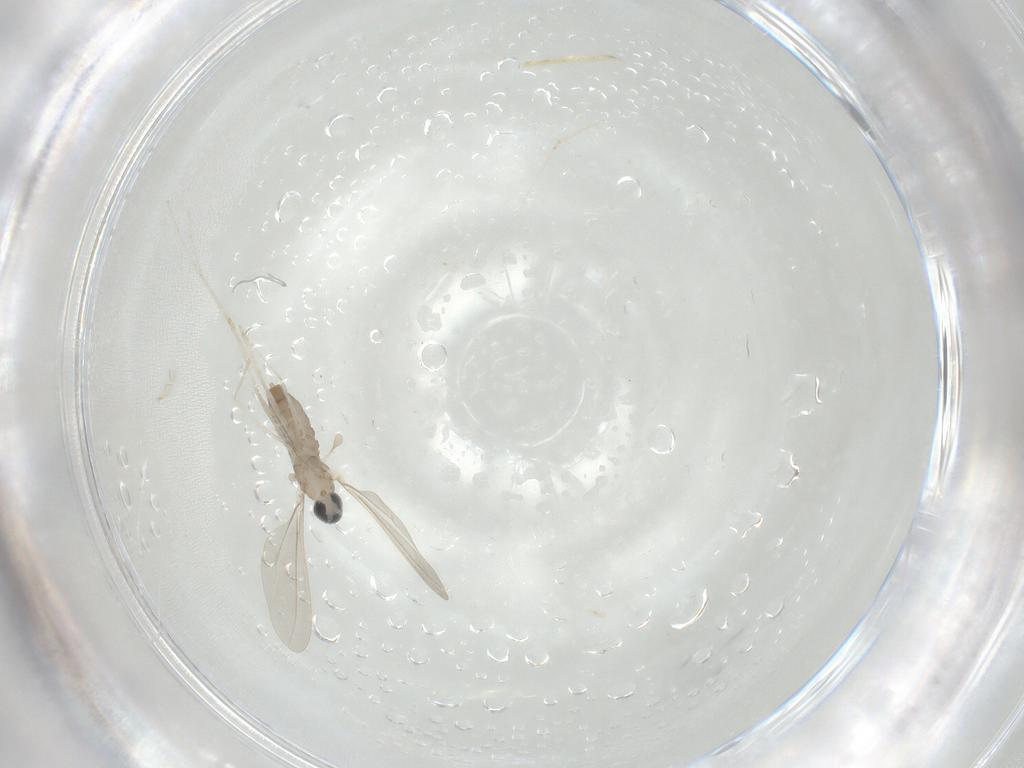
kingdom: Animalia
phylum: Arthropoda
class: Insecta
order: Diptera
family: Cecidomyiidae
